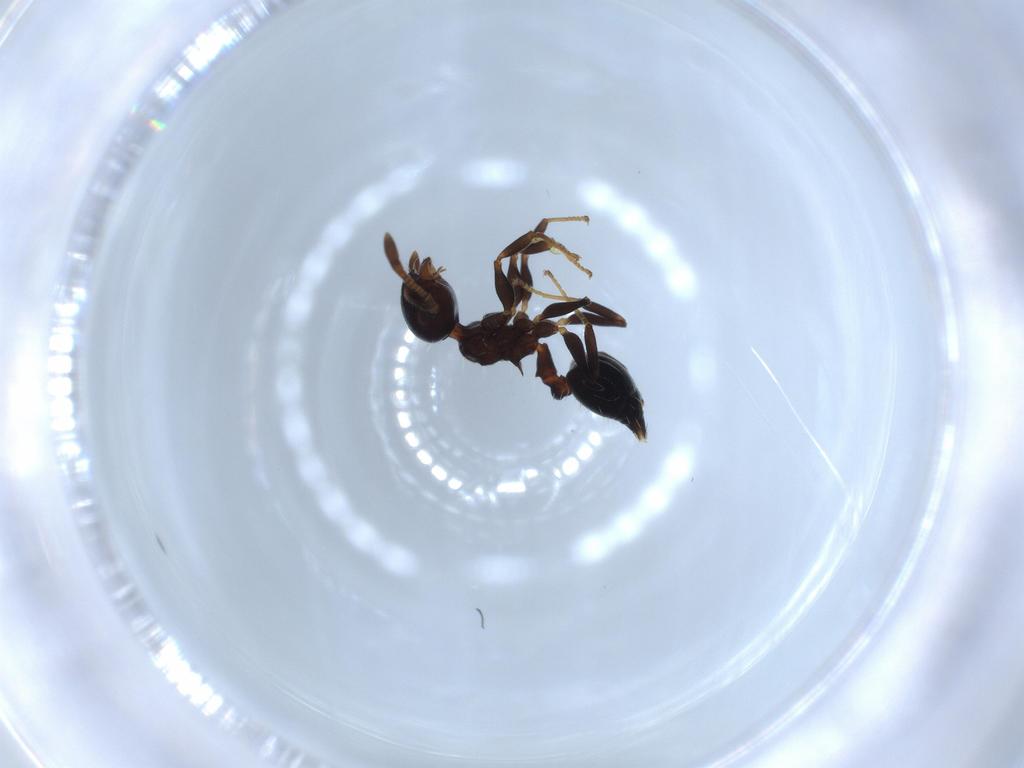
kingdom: Animalia
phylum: Arthropoda
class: Insecta
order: Hymenoptera
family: Formicidae
